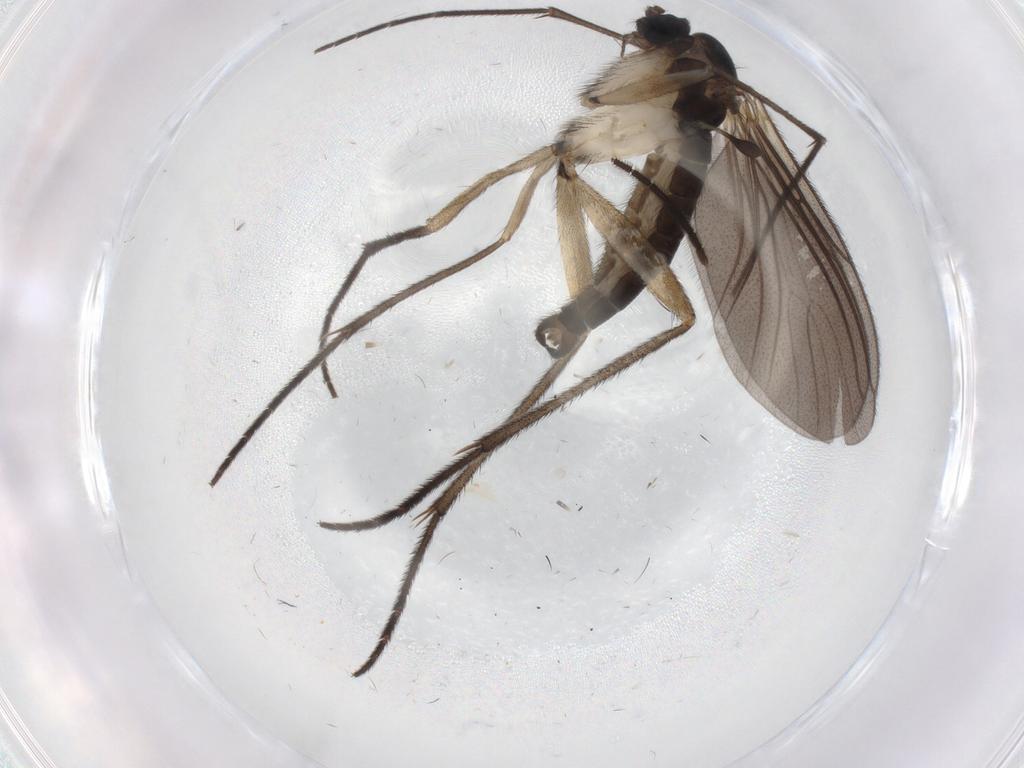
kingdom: Animalia
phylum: Arthropoda
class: Insecta
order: Diptera
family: Sciaridae
